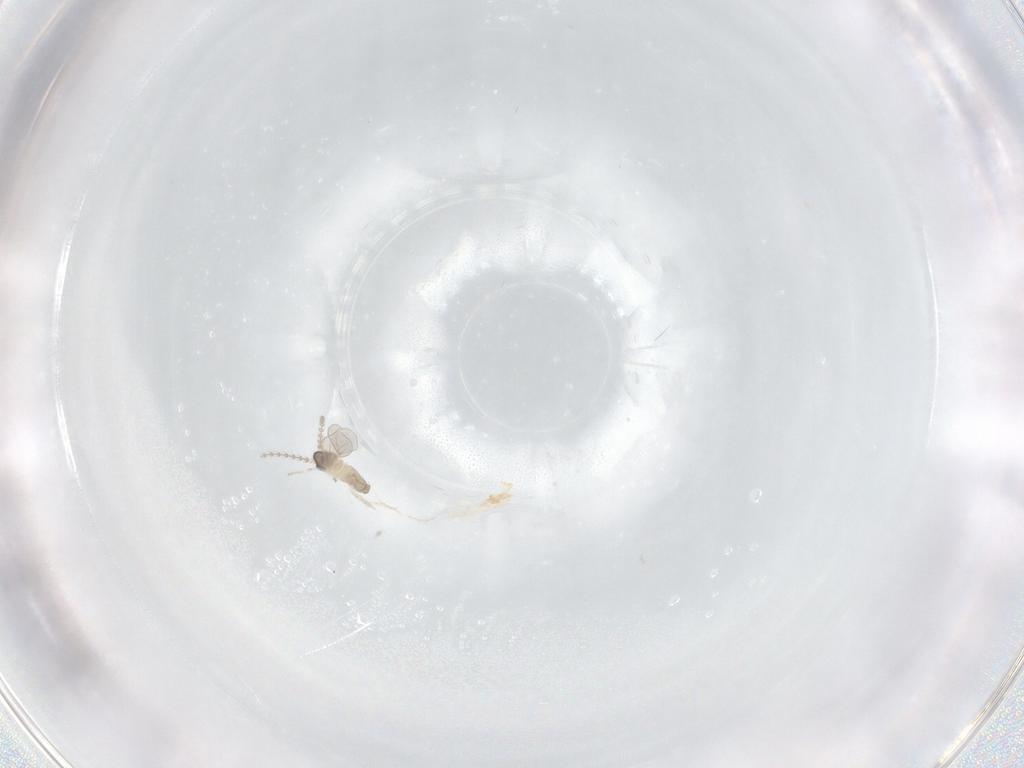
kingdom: Animalia
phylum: Arthropoda
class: Insecta
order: Diptera
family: Cecidomyiidae
